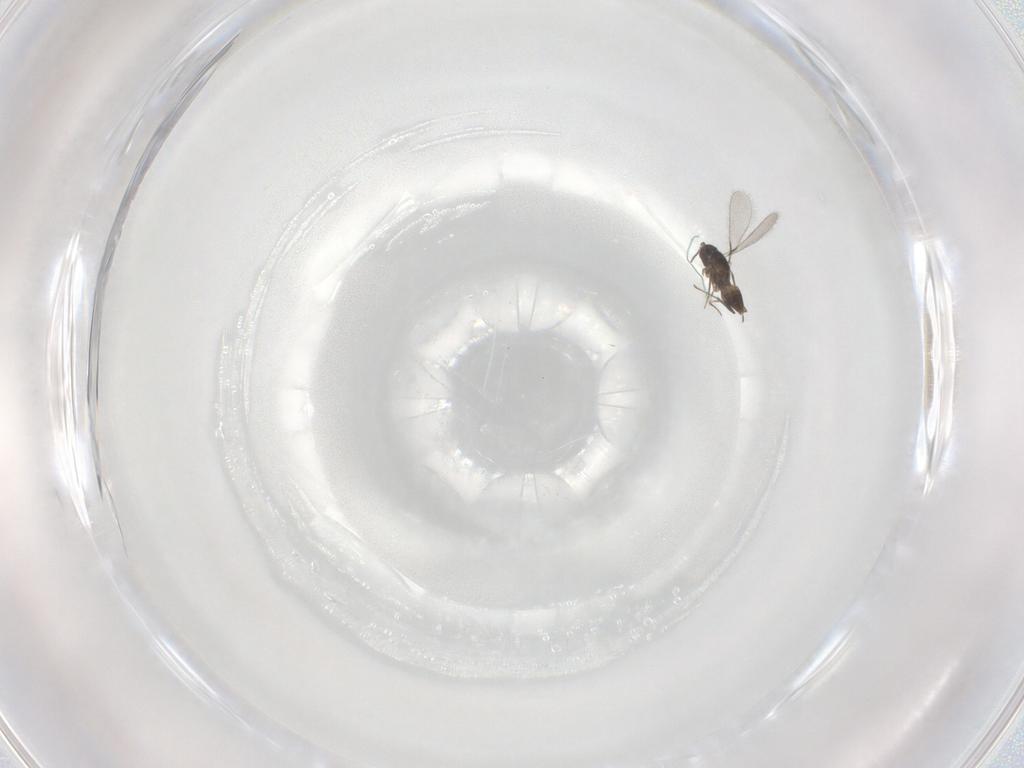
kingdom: Animalia
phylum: Arthropoda
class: Insecta
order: Hymenoptera
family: Mymaridae
